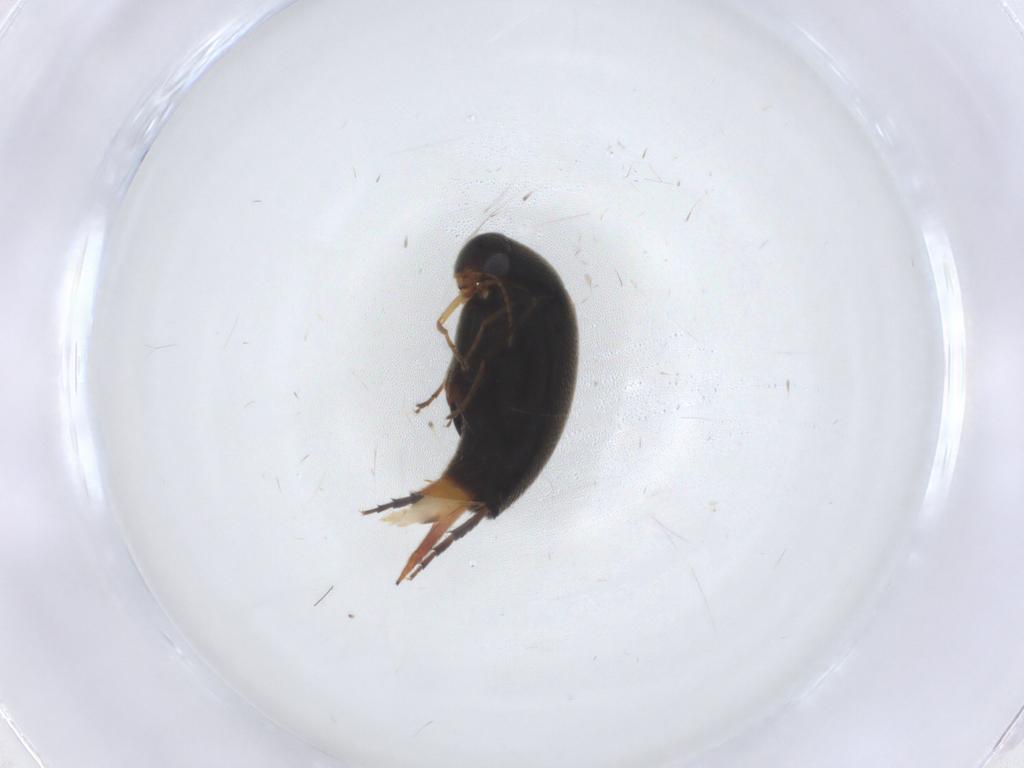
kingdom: Animalia
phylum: Arthropoda
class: Insecta
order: Coleoptera
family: Mordellidae
